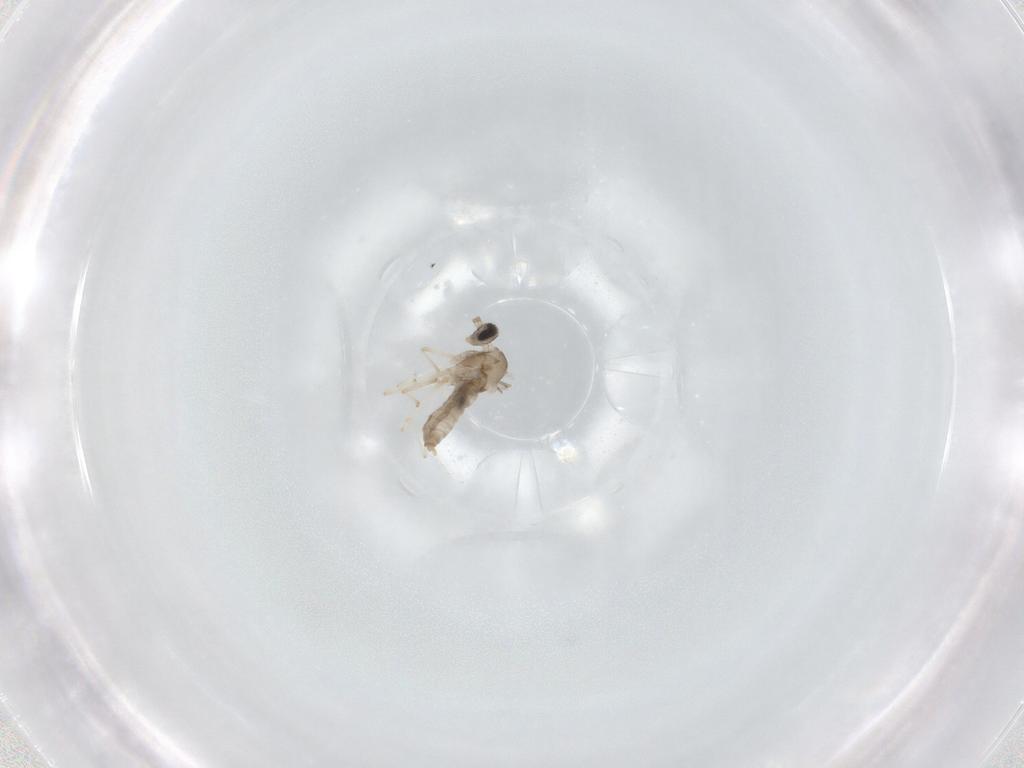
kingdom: Animalia
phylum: Arthropoda
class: Insecta
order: Diptera
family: Cecidomyiidae
